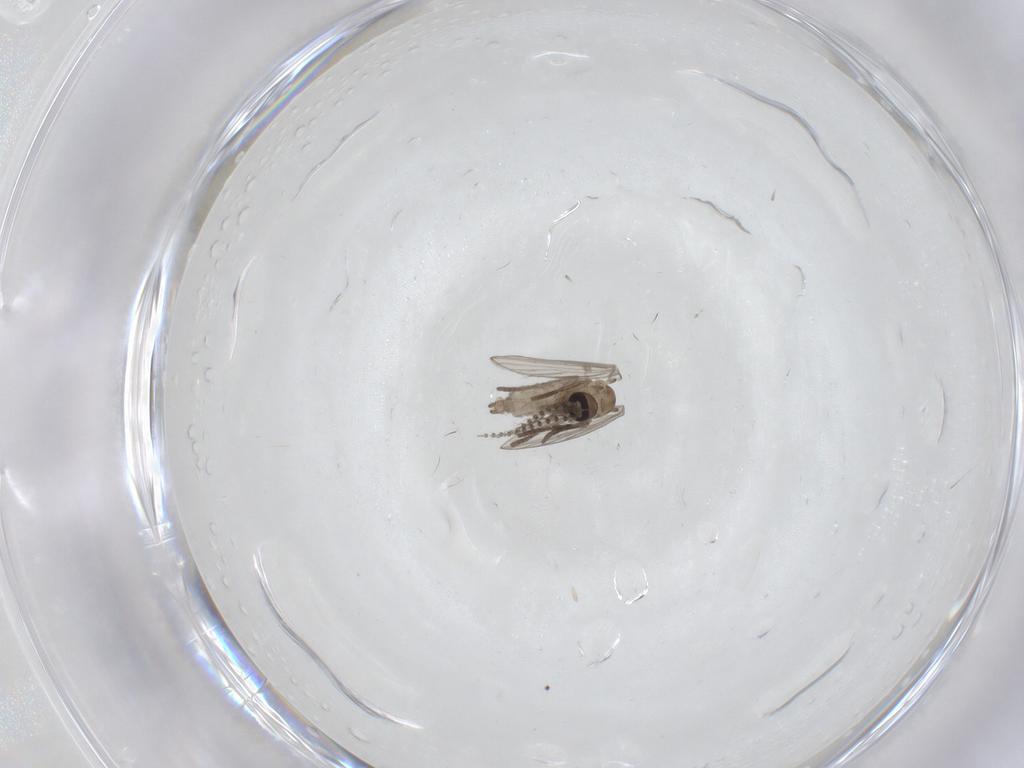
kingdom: Animalia
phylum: Arthropoda
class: Insecta
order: Diptera
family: Psychodidae
